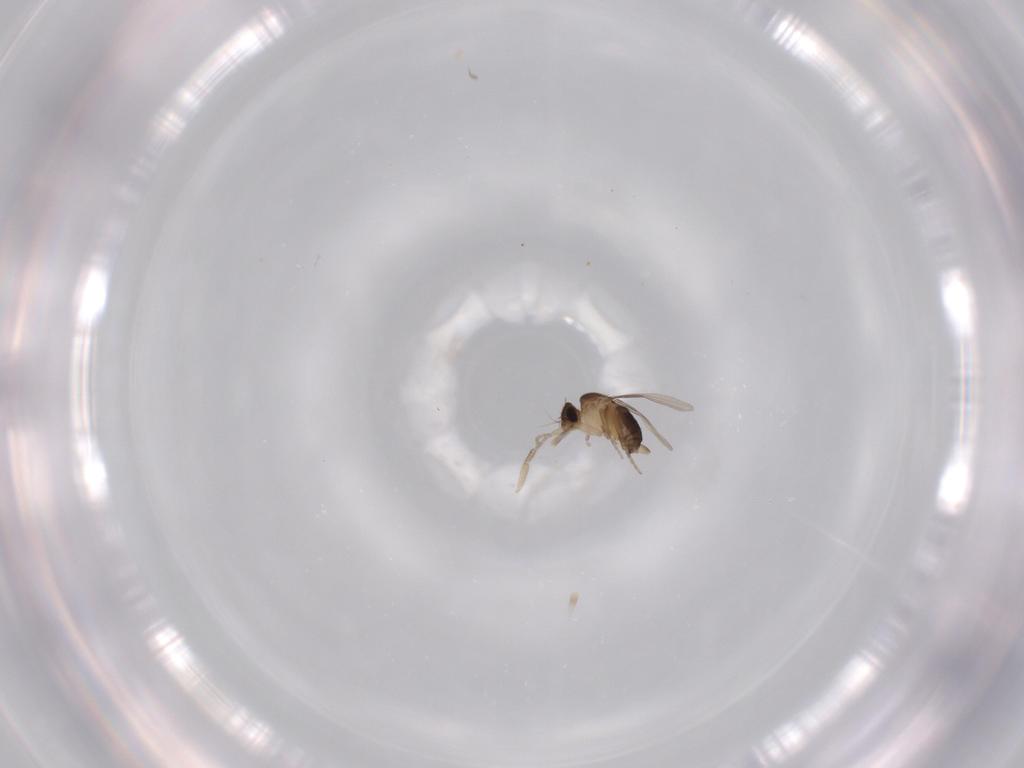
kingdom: Animalia
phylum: Arthropoda
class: Insecta
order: Diptera
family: Phoridae
